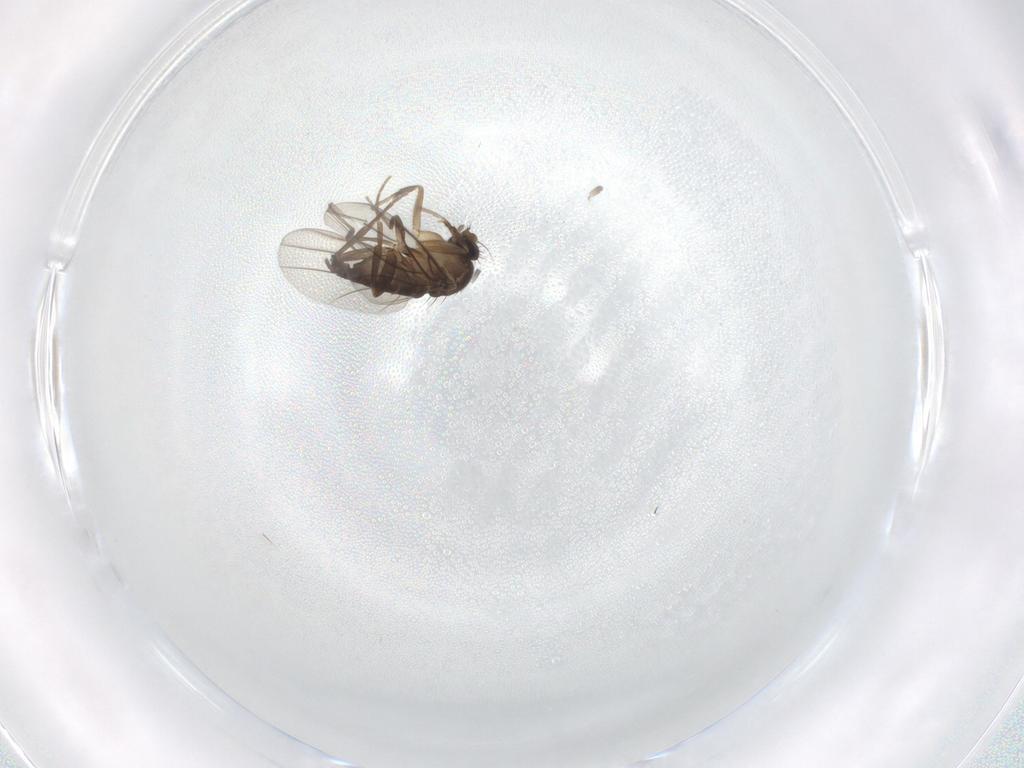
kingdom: Animalia
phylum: Arthropoda
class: Insecta
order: Diptera
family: Phoridae
